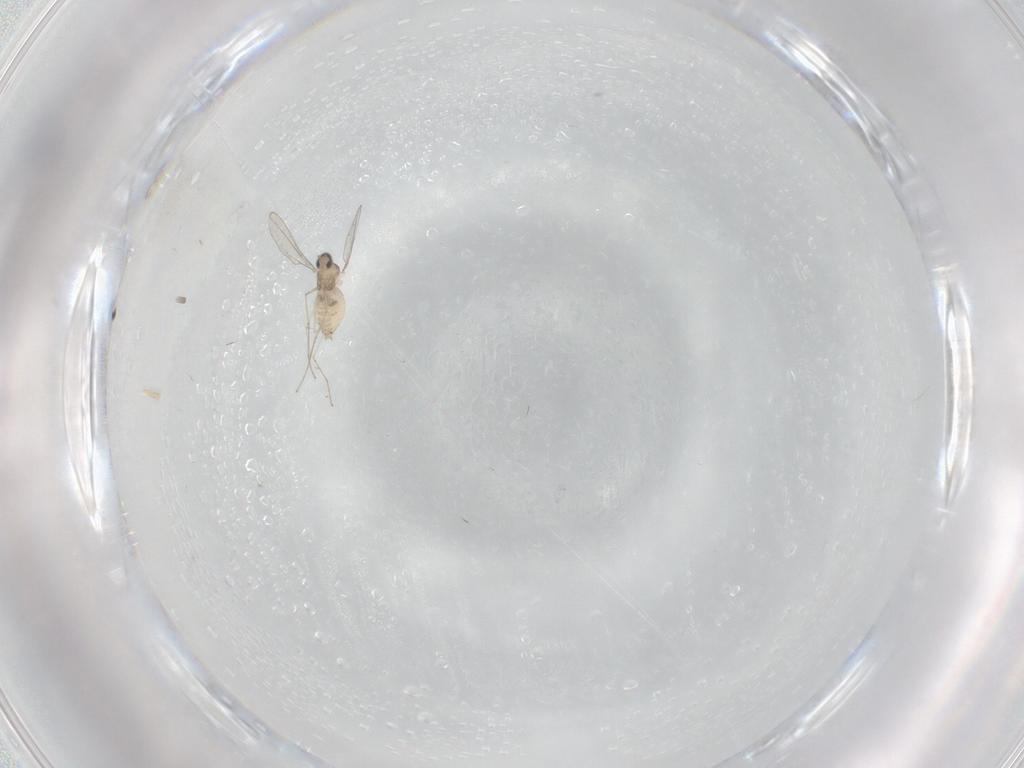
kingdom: Animalia
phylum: Arthropoda
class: Insecta
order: Diptera
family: Cecidomyiidae
